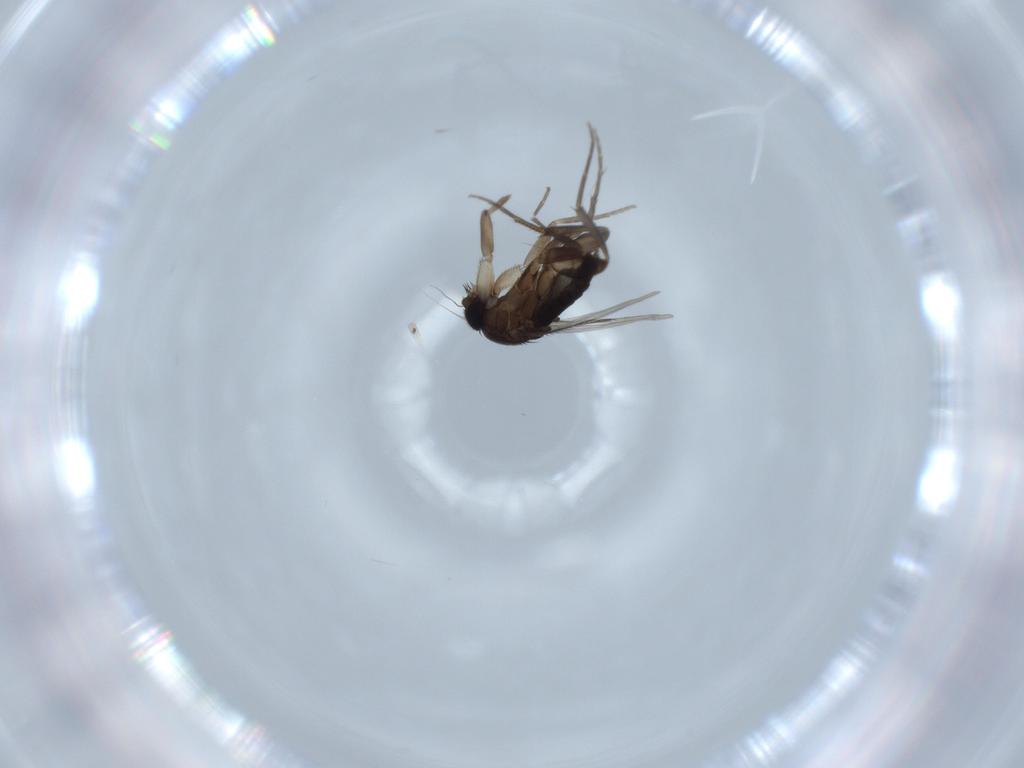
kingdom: Animalia
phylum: Arthropoda
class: Insecta
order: Diptera
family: Phoridae
